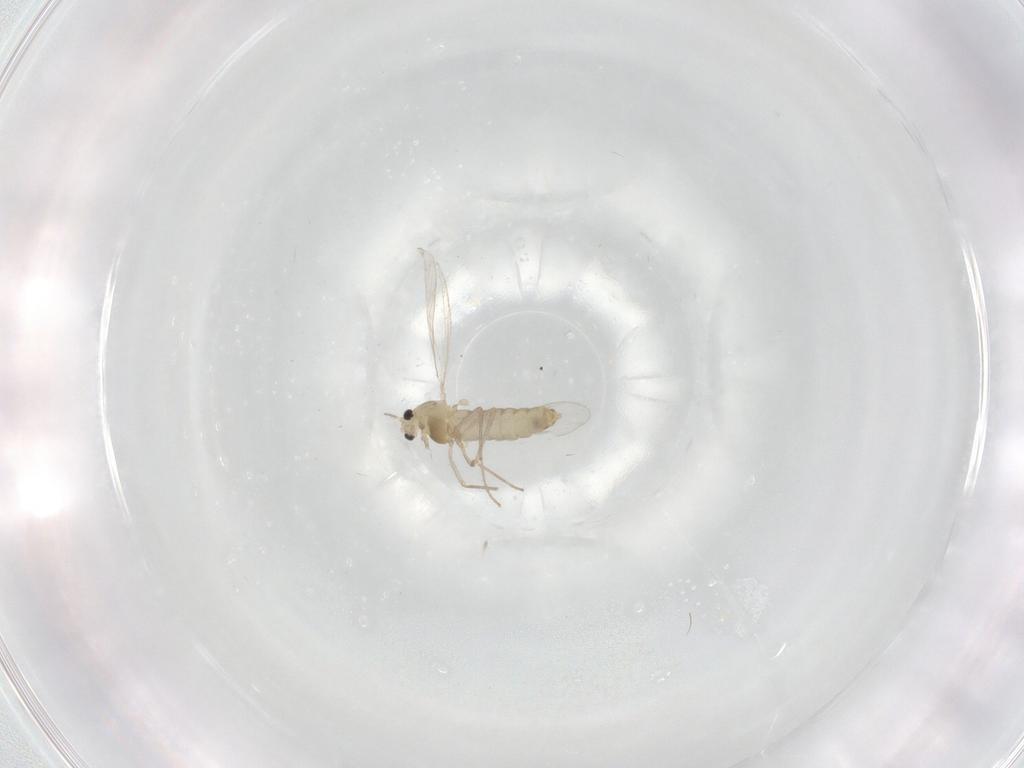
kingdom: Animalia
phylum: Arthropoda
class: Insecta
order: Diptera
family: Chironomidae
